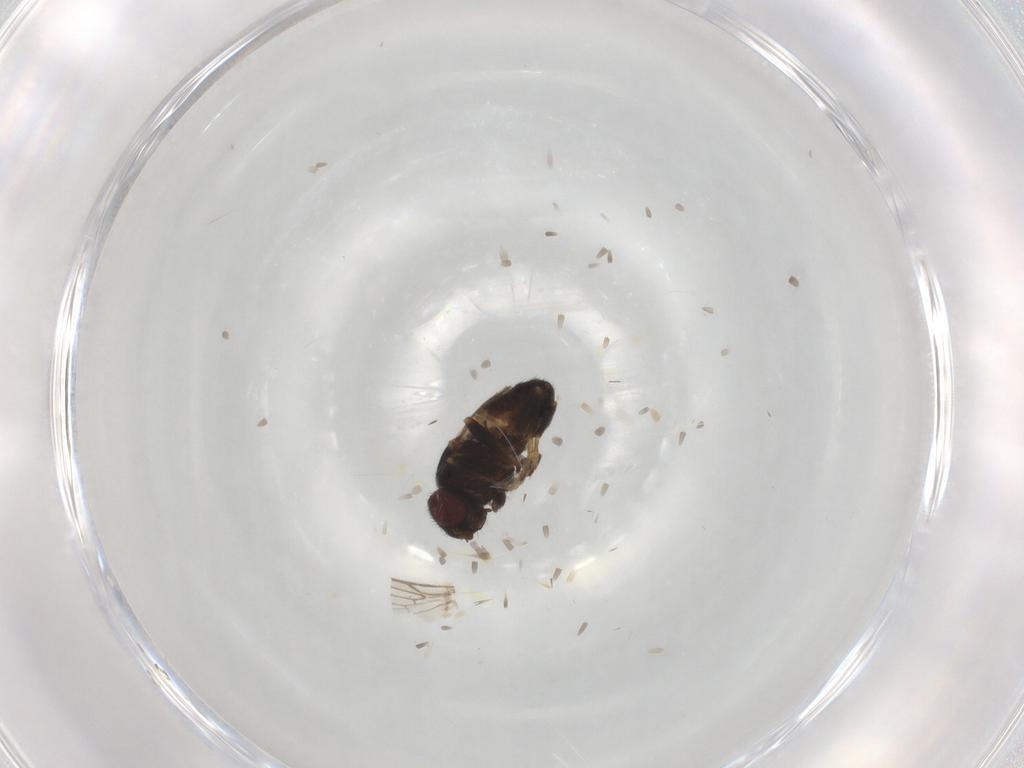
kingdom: Animalia
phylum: Arthropoda
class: Insecta
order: Diptera
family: Chloropidae
